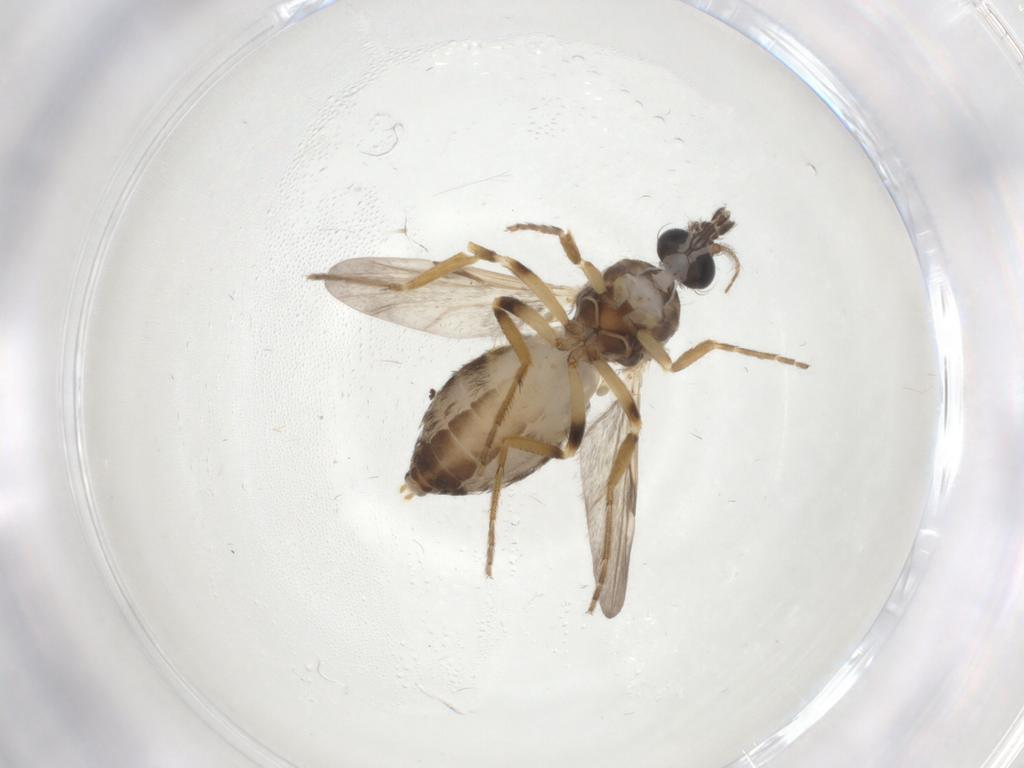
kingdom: Animalia
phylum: Arthropoda
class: Insecta
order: Diptera
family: Ceratopogonidae
